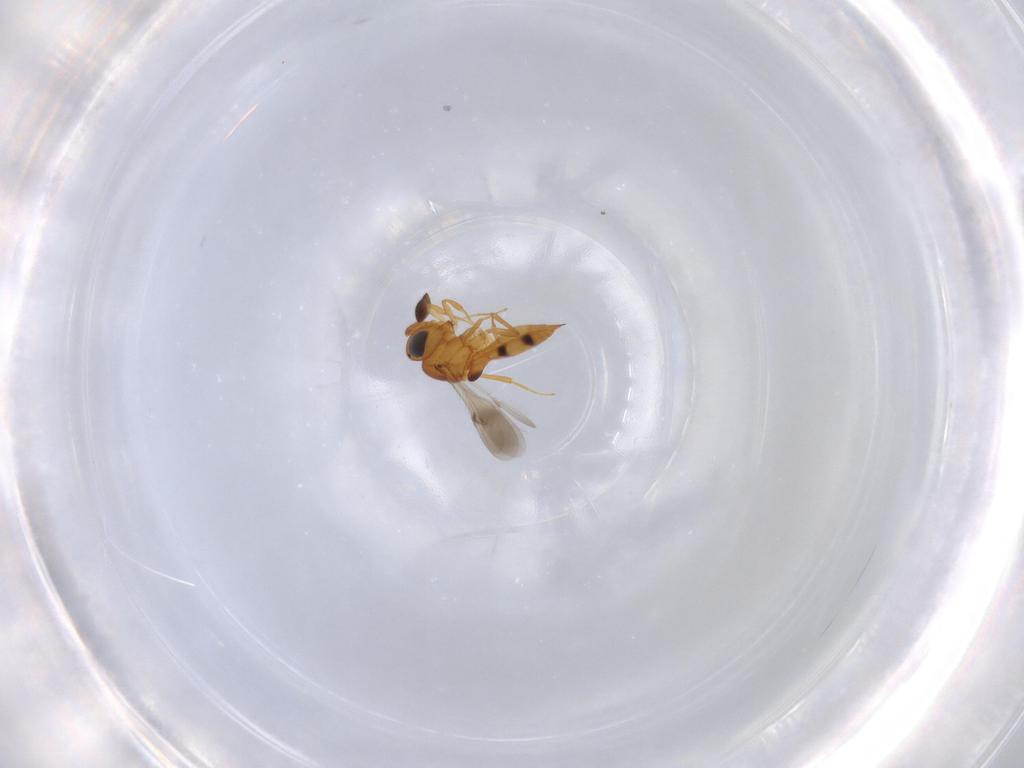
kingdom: Animalia
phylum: Arthropoda
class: Insecta
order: Hymenoptera
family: Scelionidae
